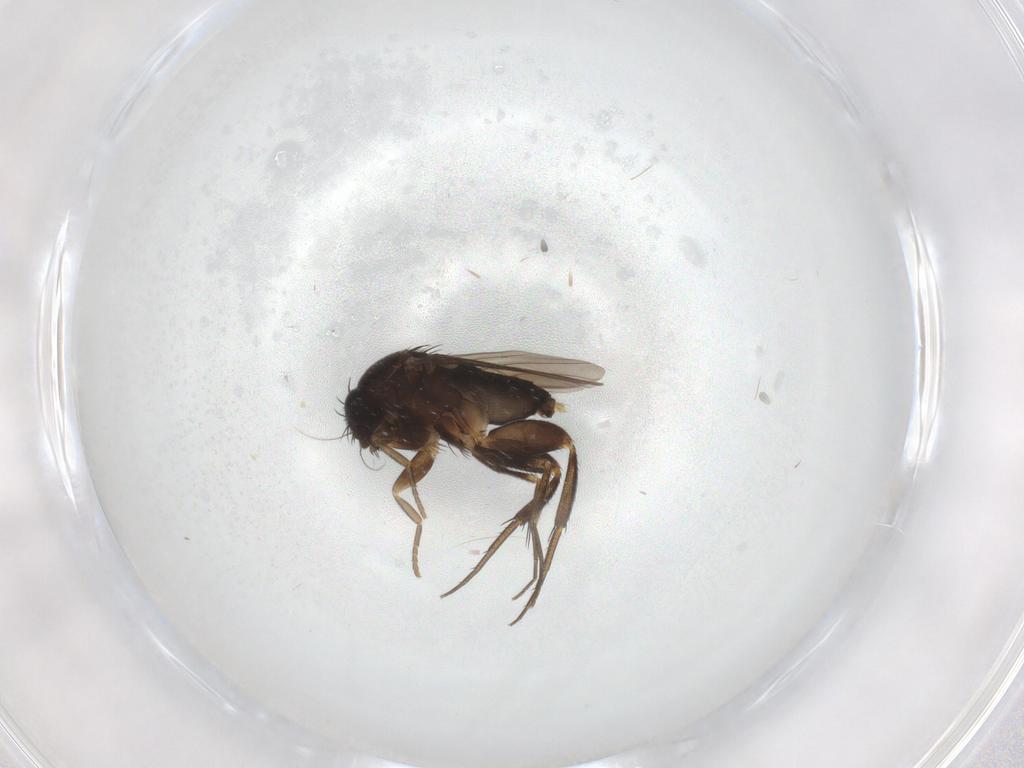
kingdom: Animalia
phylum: Arthropoda
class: Insecta
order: Diptera
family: Phoridae
